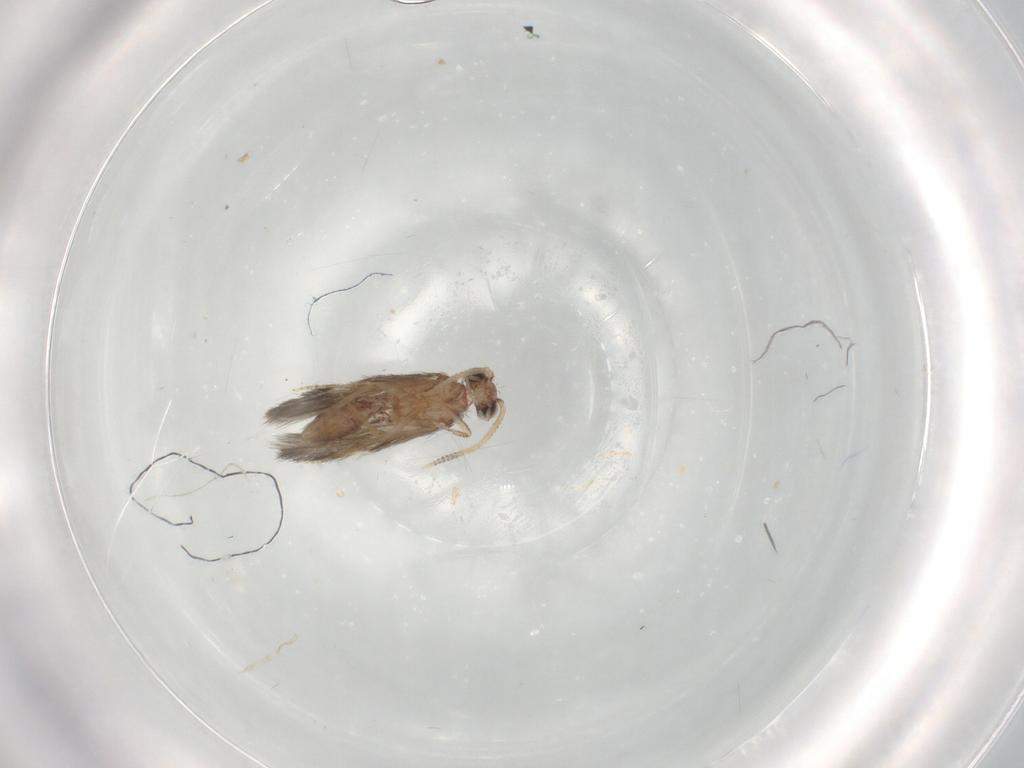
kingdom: Animalia
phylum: Arthropoda
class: Insecta
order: Trichoptera
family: Hydroptilidae
